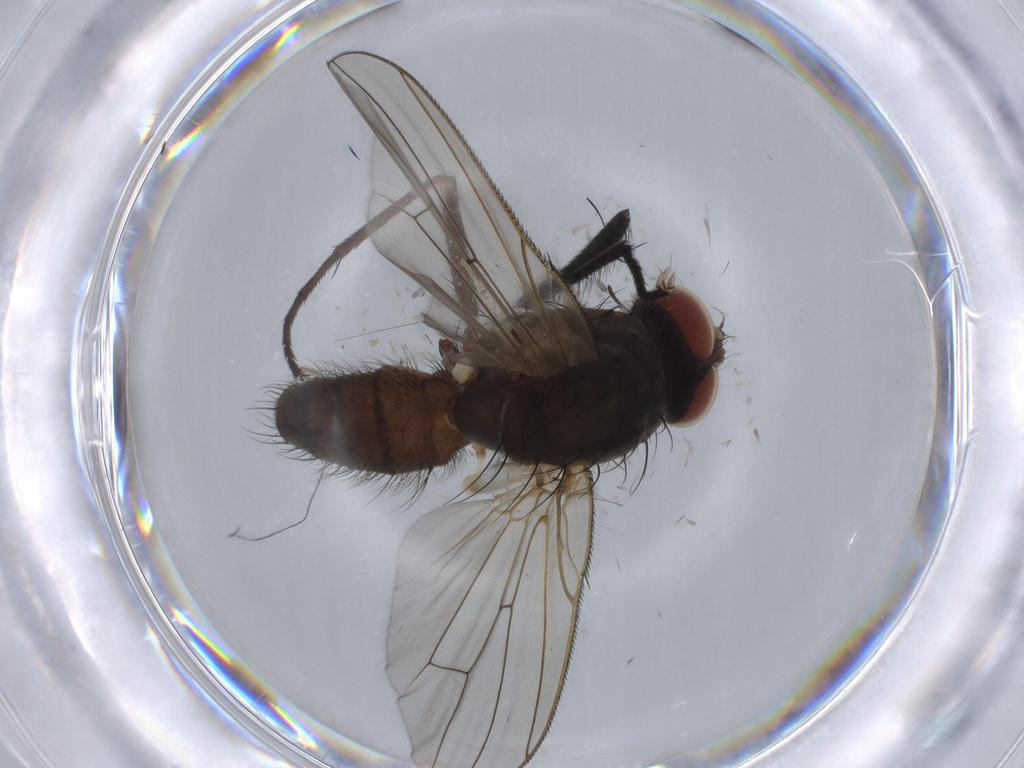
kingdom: Animalia
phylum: Arthropoda
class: Insecta
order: Diptera
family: Anthomyiidae
